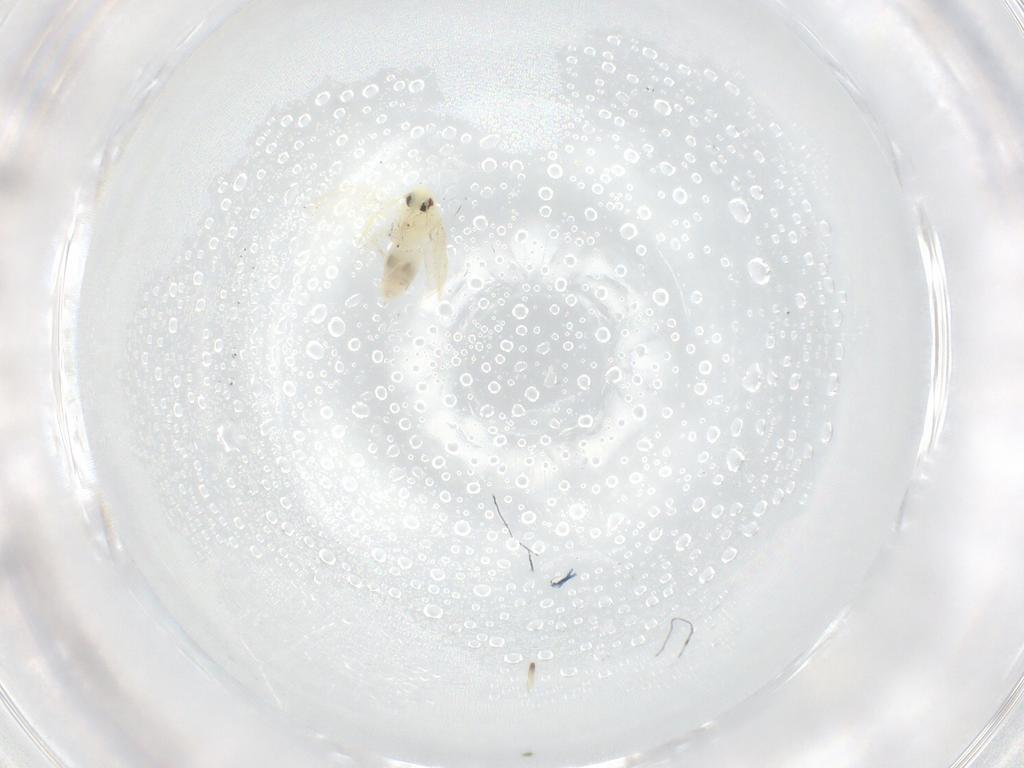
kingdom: Animalia
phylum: Arthropoda
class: Insecta
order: Hemiptera
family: Aleyrodidae
